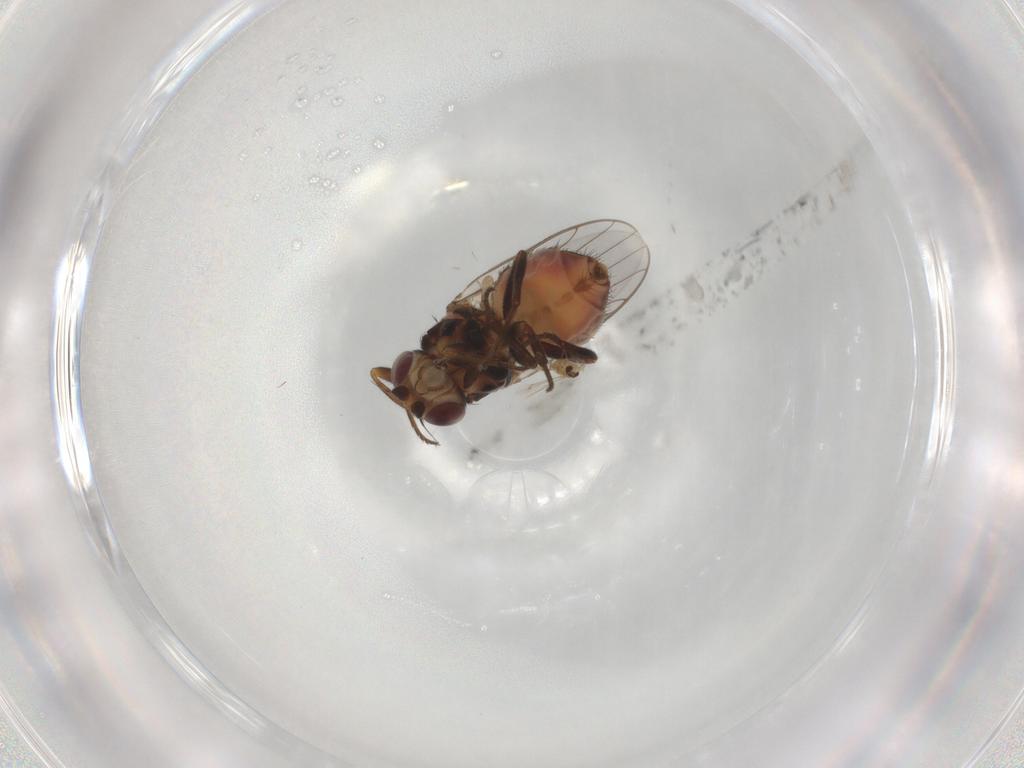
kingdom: Animalia
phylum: Arthropoda
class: Insecta
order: Diptera
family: Chloropidae
